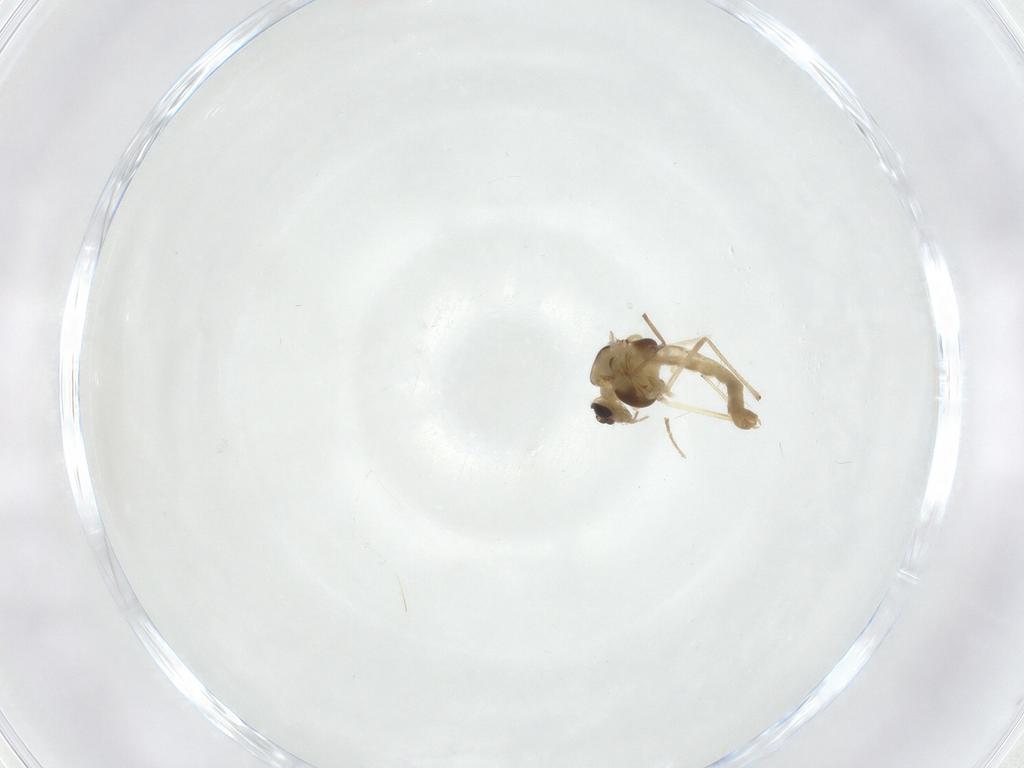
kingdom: Animalia
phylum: Arthropoda
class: Insecta
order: Diptera
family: Chironomidae
